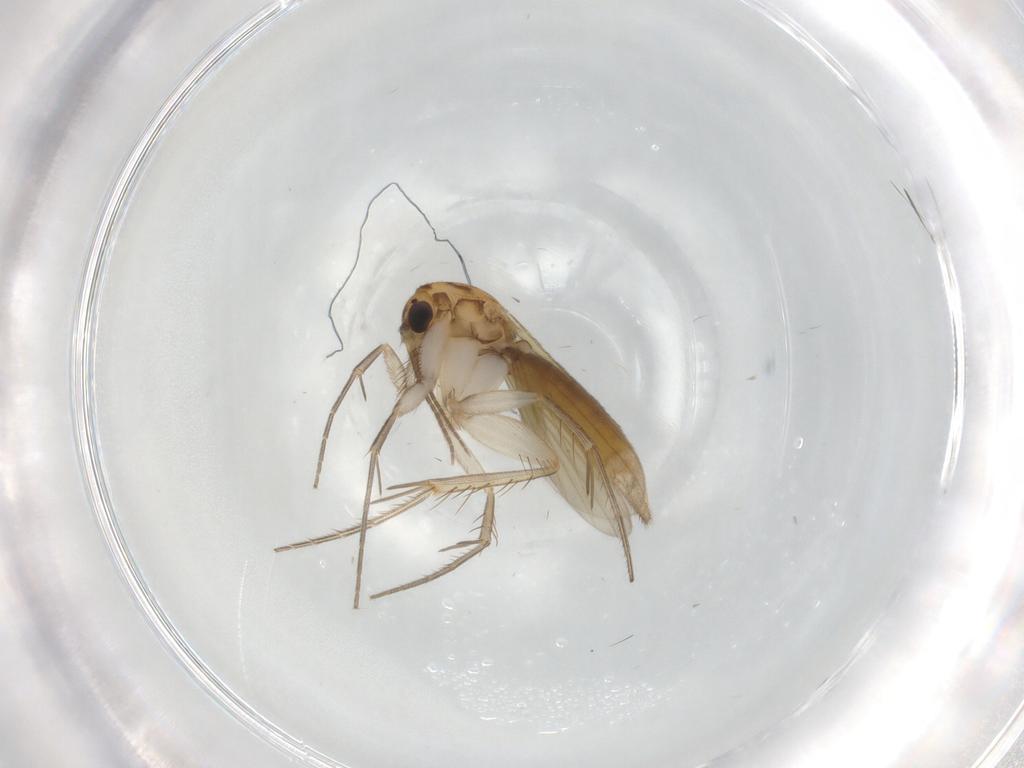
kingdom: Animalia
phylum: Arthropoda
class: Insecta
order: Diptera
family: Mycetophilidae
